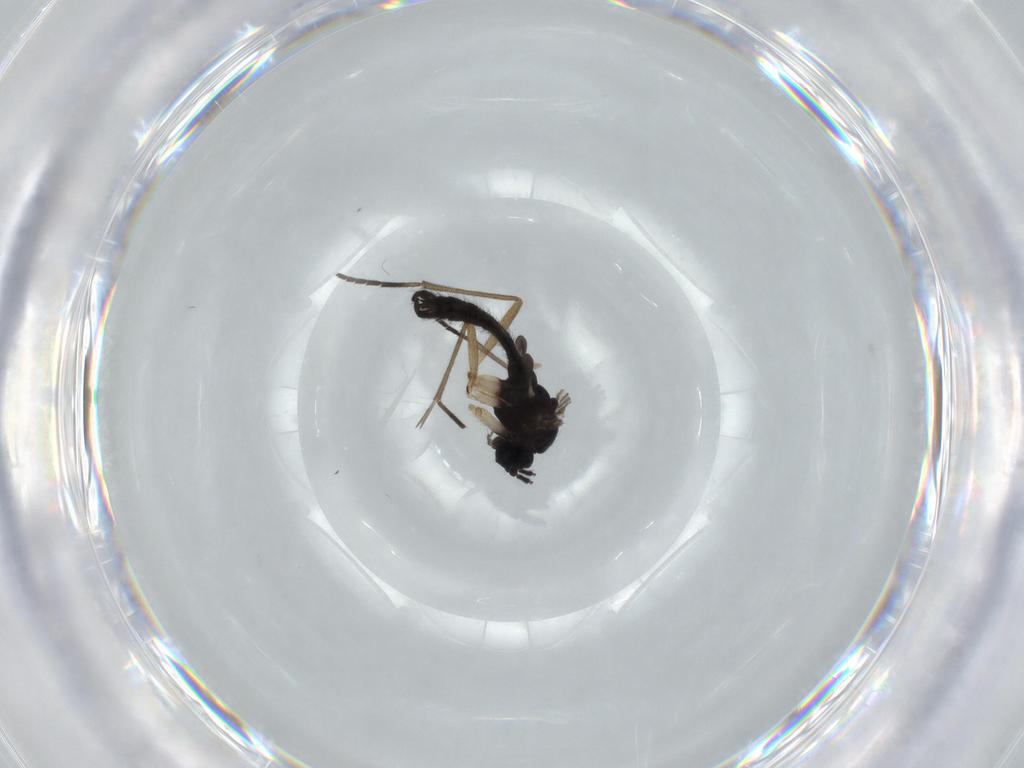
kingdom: Animalia
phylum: Arthropoda
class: Insecta
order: Diptera
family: Sciaridae
